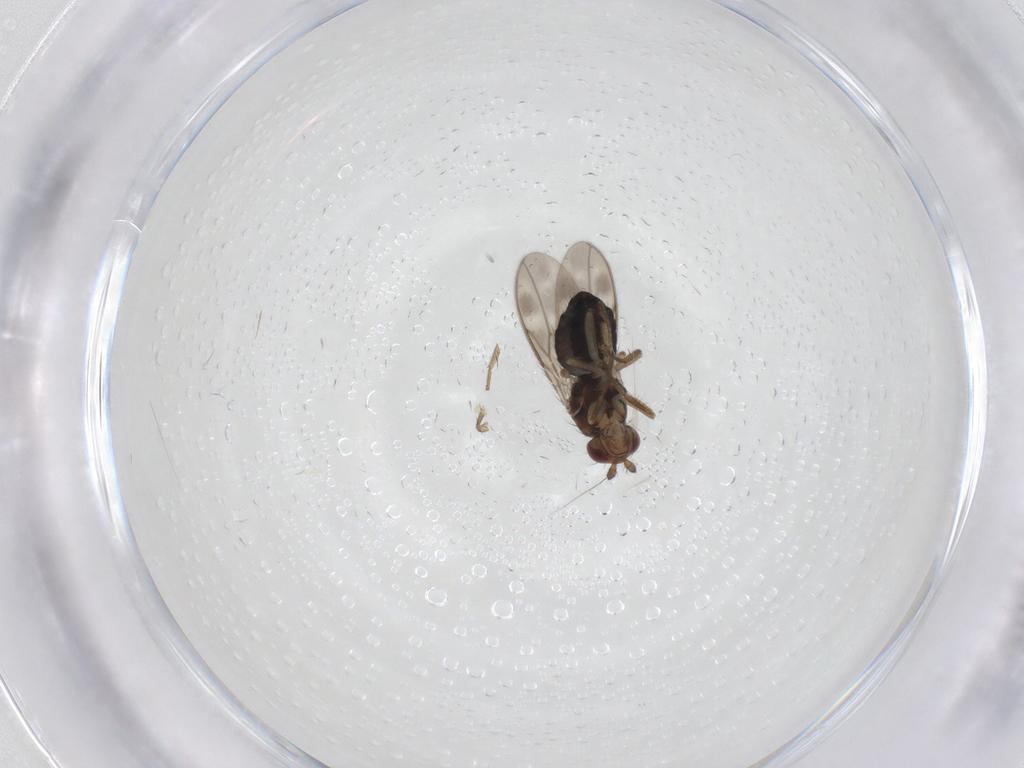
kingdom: Animalia
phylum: Arthropoda
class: Insecta
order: Diptera
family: Sphaeroceridae
